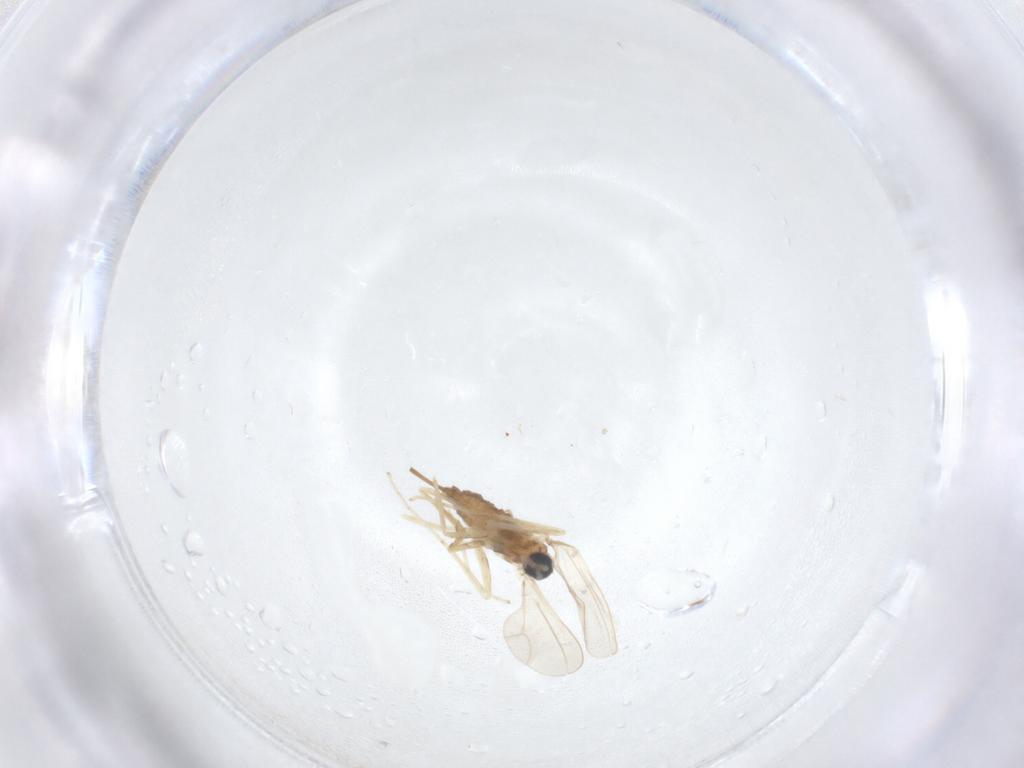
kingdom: Animalia
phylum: Arthropoda
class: Insecta
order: Diptera
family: Cecidomyiidae
